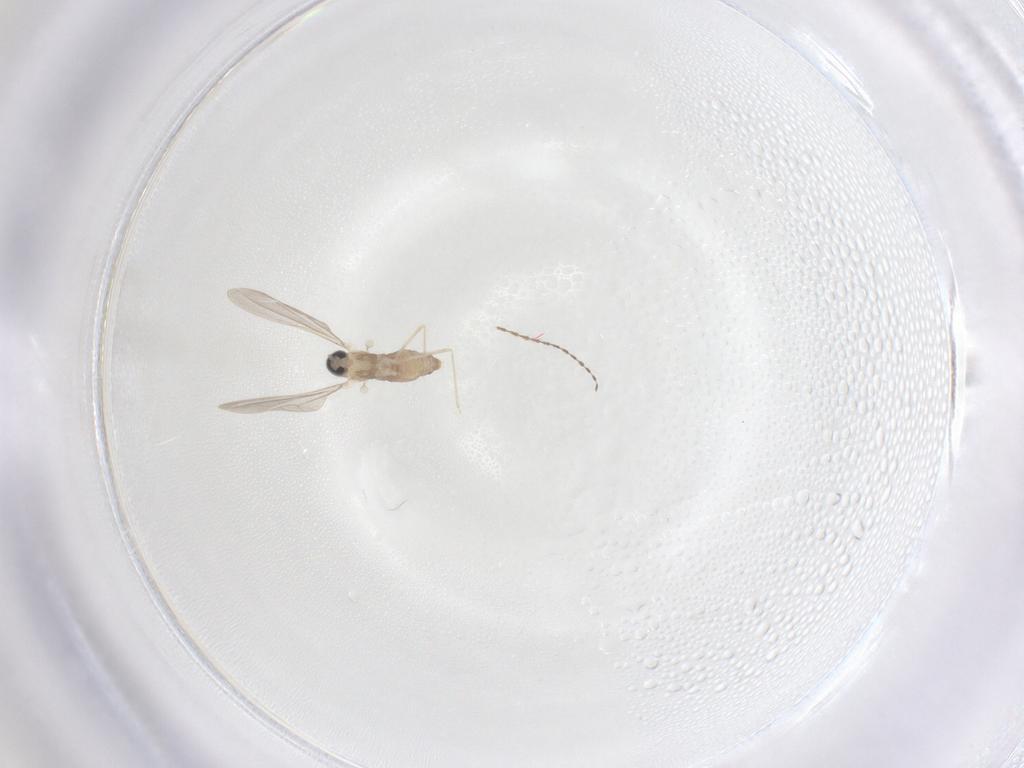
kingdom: Animalia
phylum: Arthropoda
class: Insecta
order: Diptera
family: Cecidomyiidae
